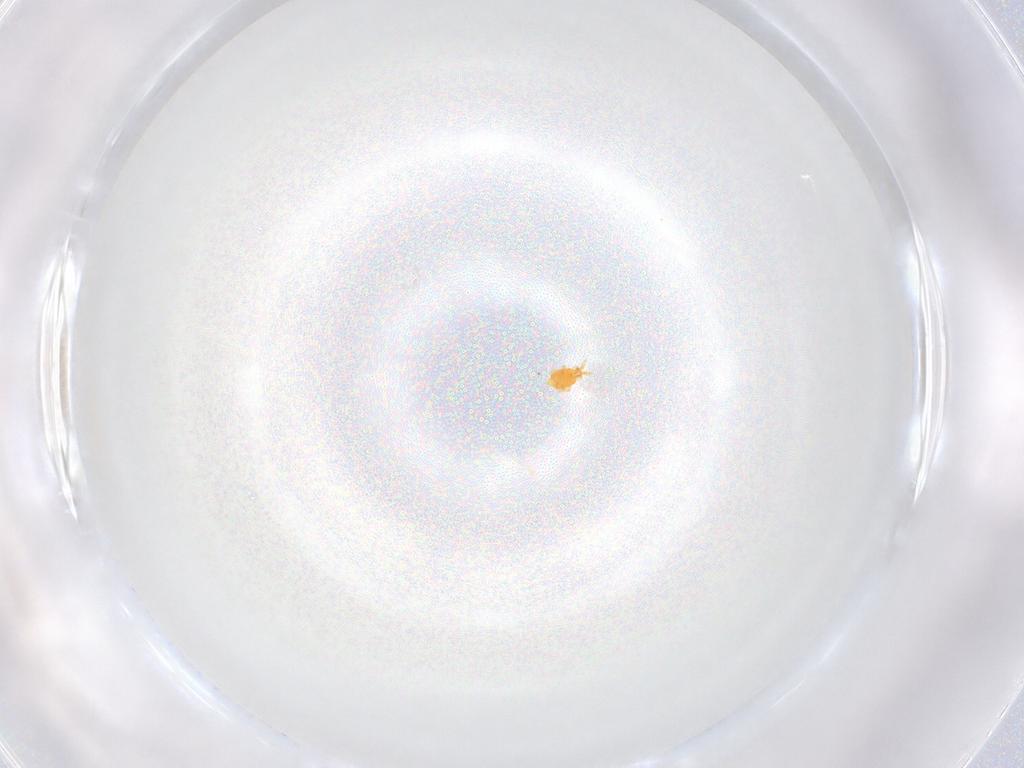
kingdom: Animalia
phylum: Arthropoda
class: Insecta
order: Thysanoptera
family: Heterothripidae
